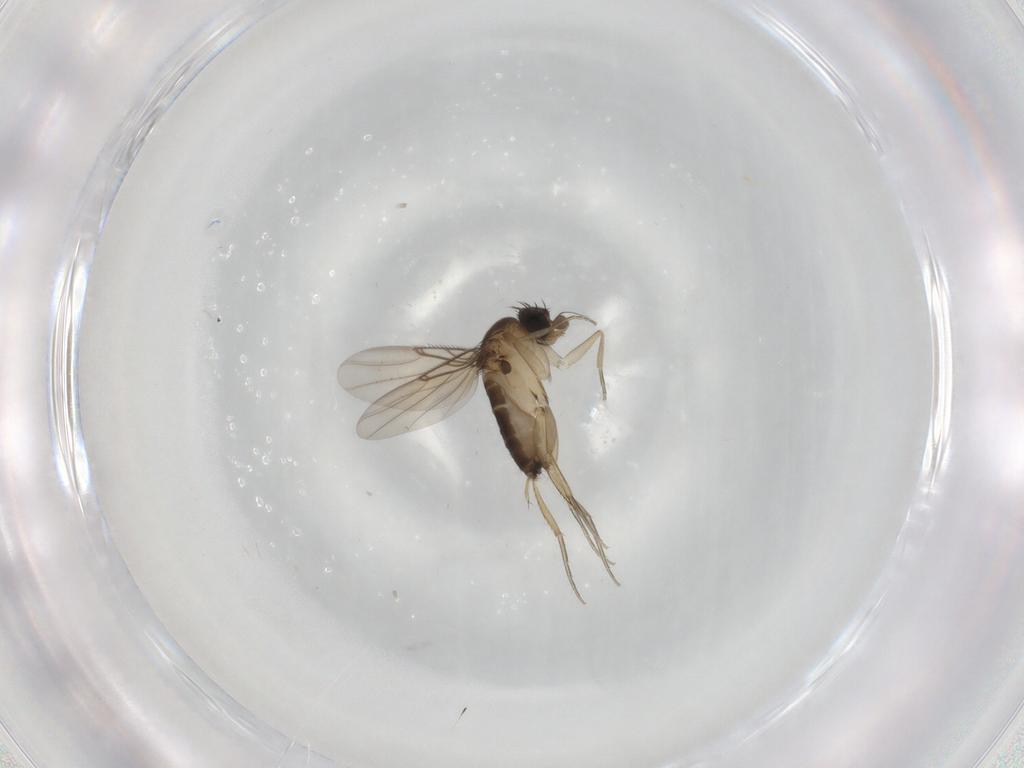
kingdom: Animalia
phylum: Arthropoda
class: Insecta
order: Diptera
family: Phoridae
